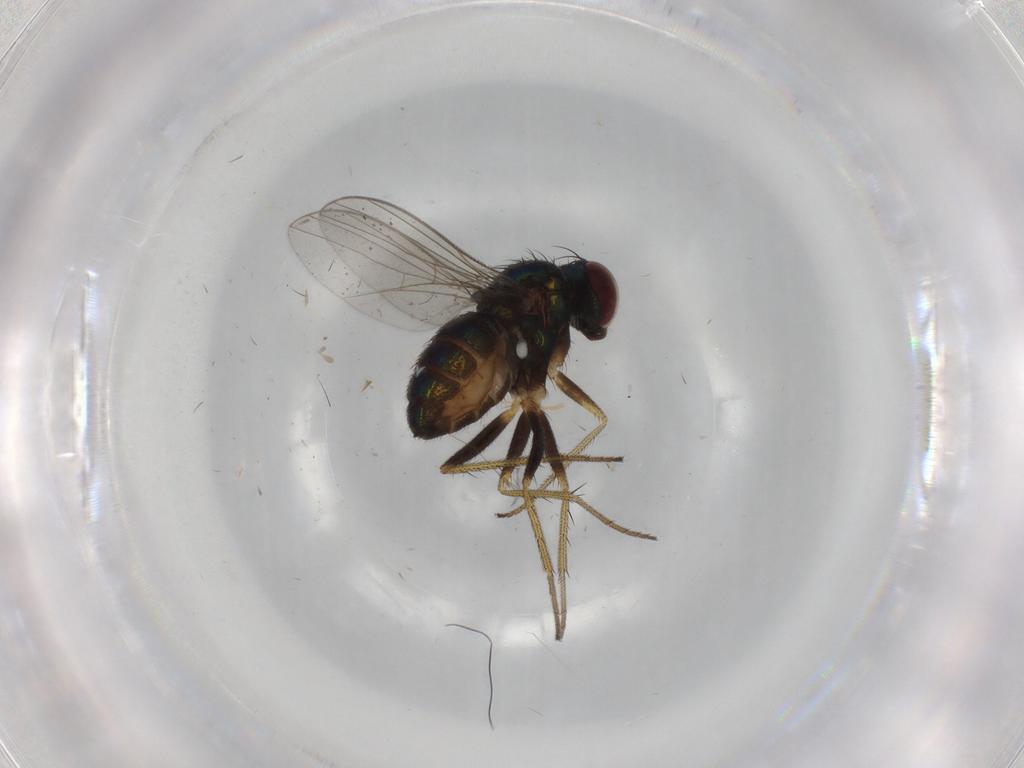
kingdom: Animalia
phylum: Arthropoda
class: Insecta
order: Diptera
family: Dolichopodidae
